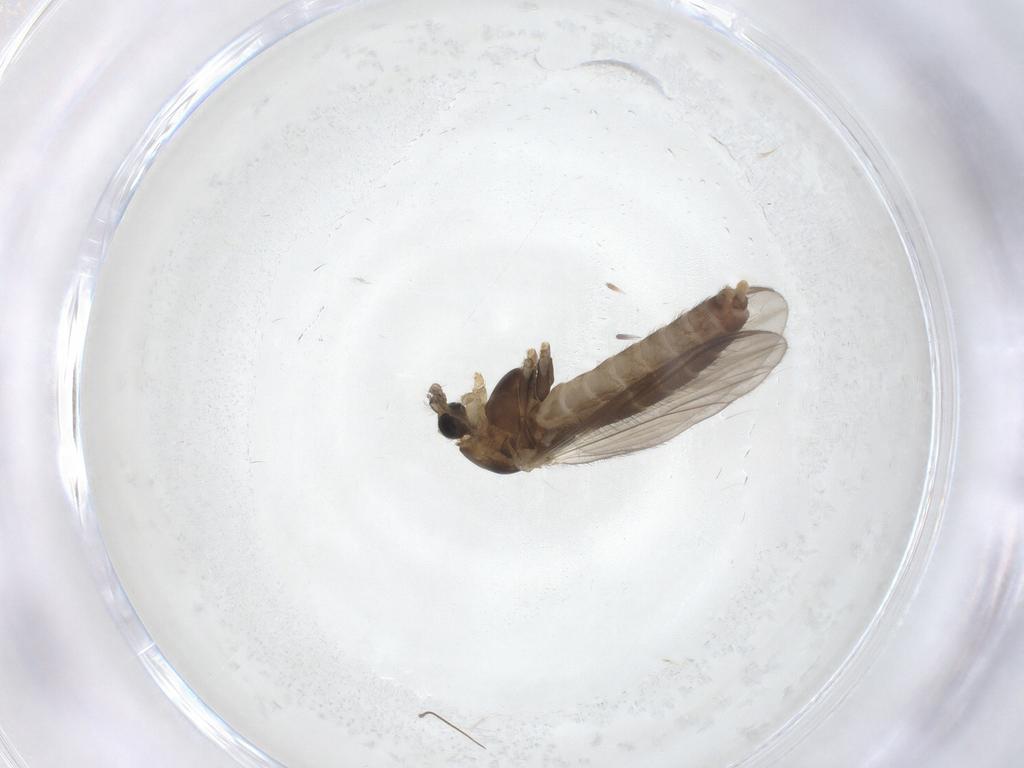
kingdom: Animalia
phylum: Arthropoda
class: Insecta
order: Diptera
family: Chironomidae
